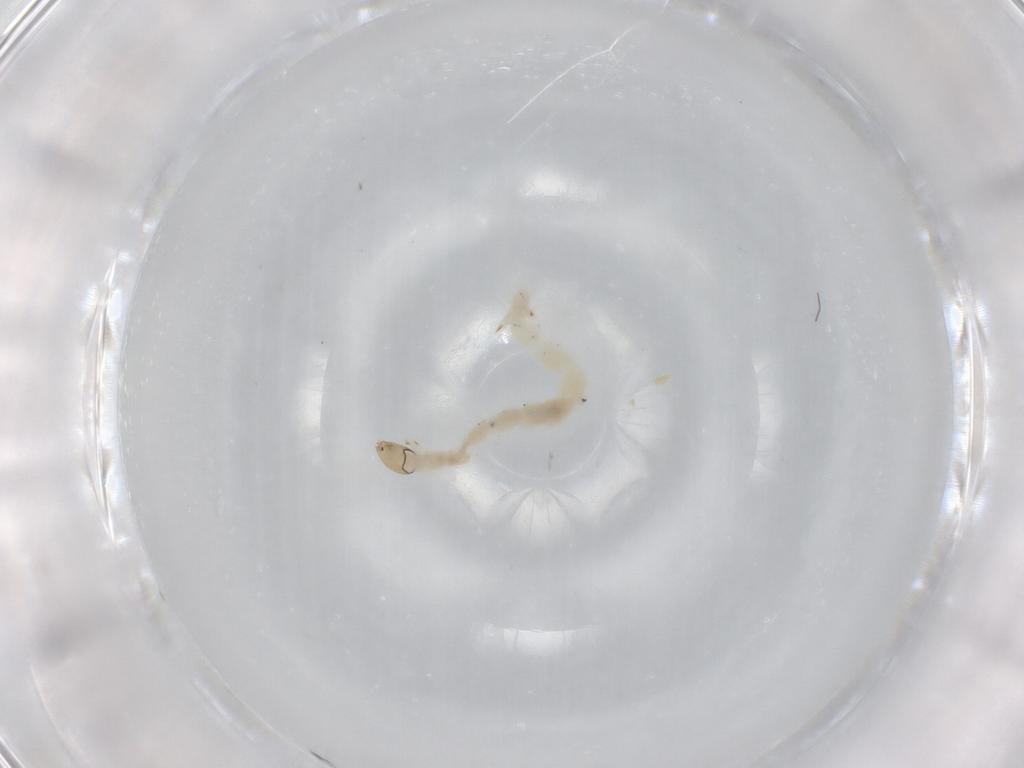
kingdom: Animalia
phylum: Arthropoda
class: Insecta
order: Diptera
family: Chironomidae
